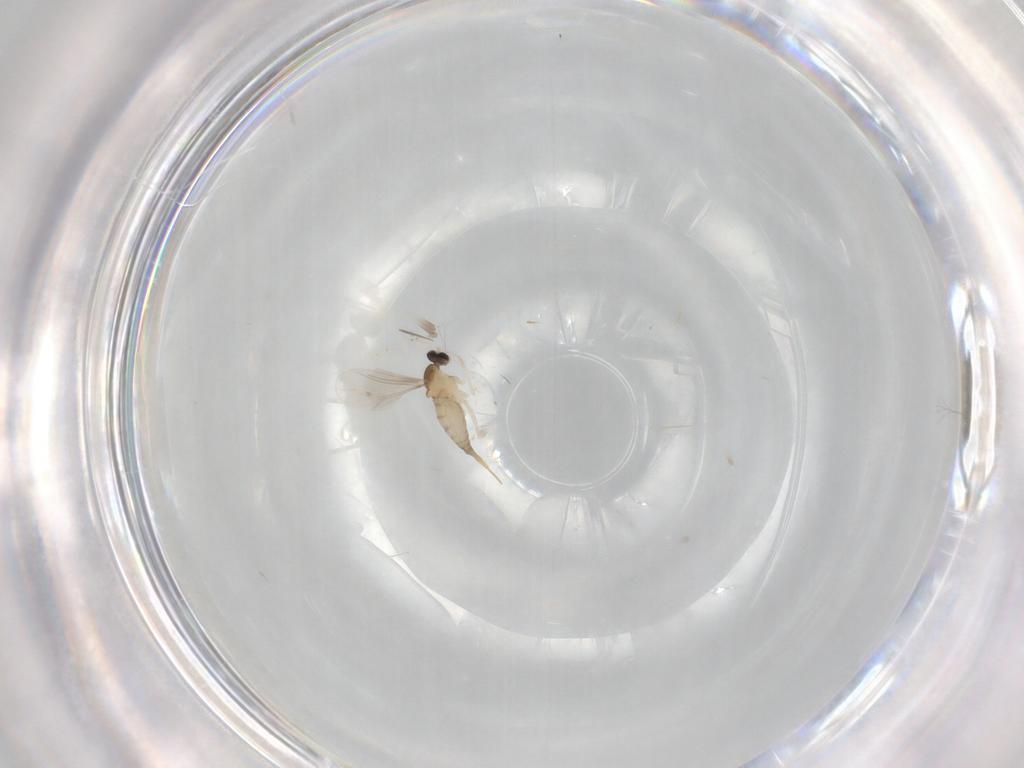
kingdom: Animalia
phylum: Arthropoda
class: Insecta
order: Diptera
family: Cecidomyiidae
